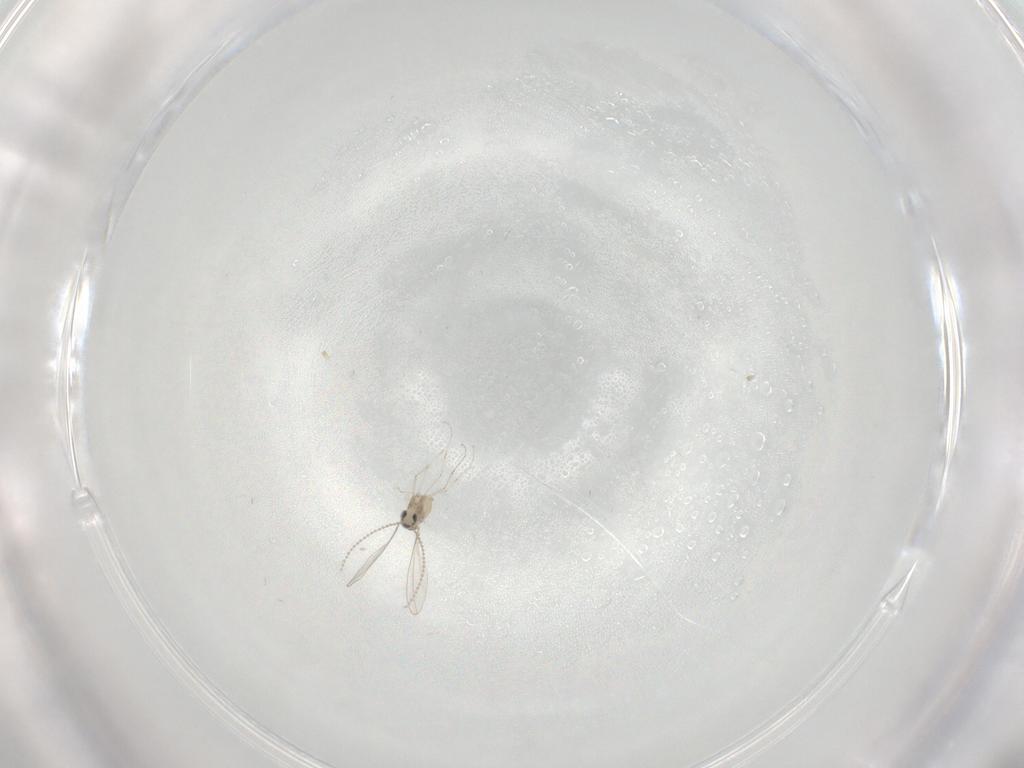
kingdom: Animalia
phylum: Arthropoda
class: Insecta
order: Diptera
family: Cecidomyiidae
